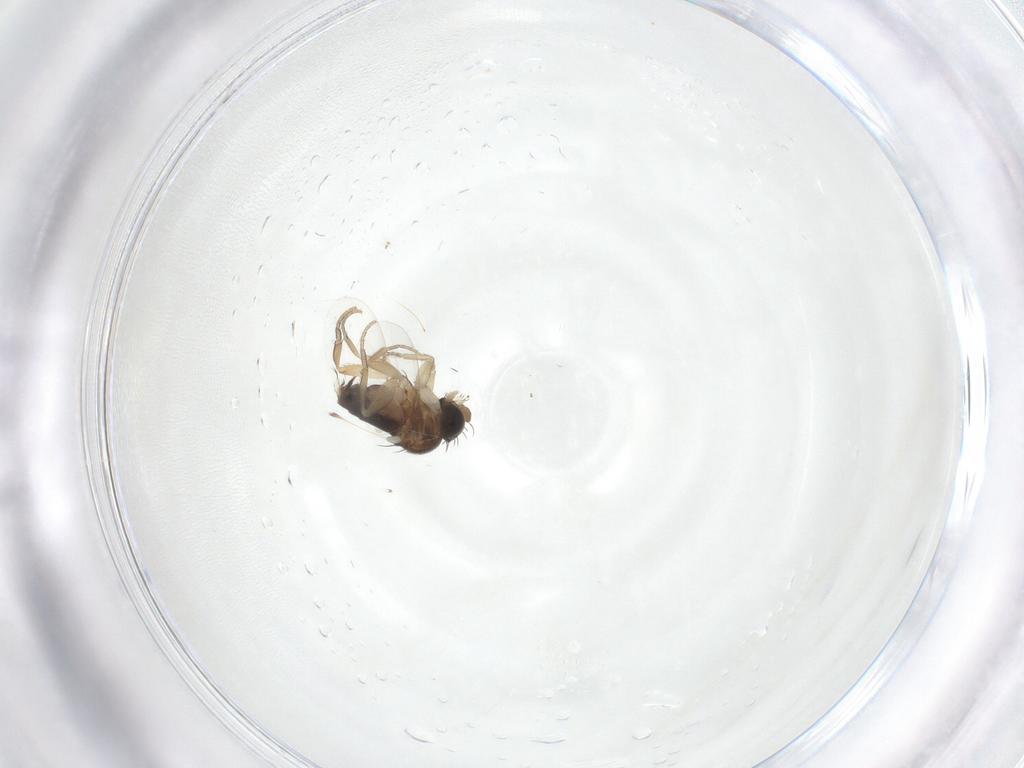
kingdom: Animalia
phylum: Arthropoda
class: Insecta
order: Diptera
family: Phoridae
